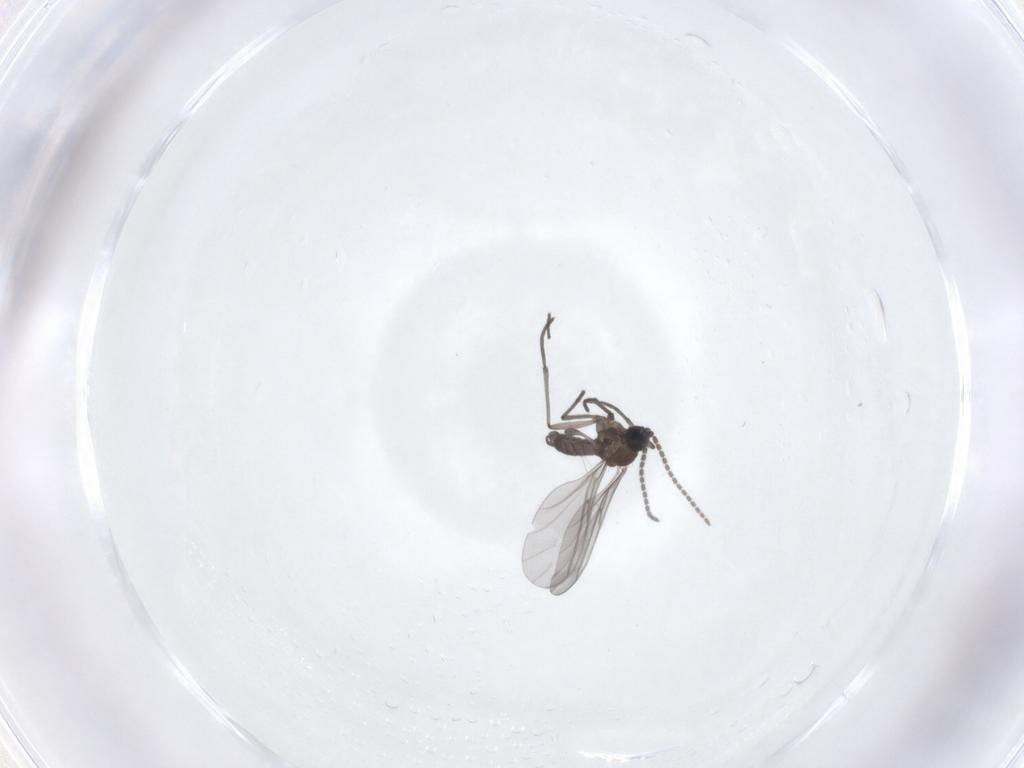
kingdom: Animalia
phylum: Arthropoda
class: Insecta
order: Diptera
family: Sciaridae
